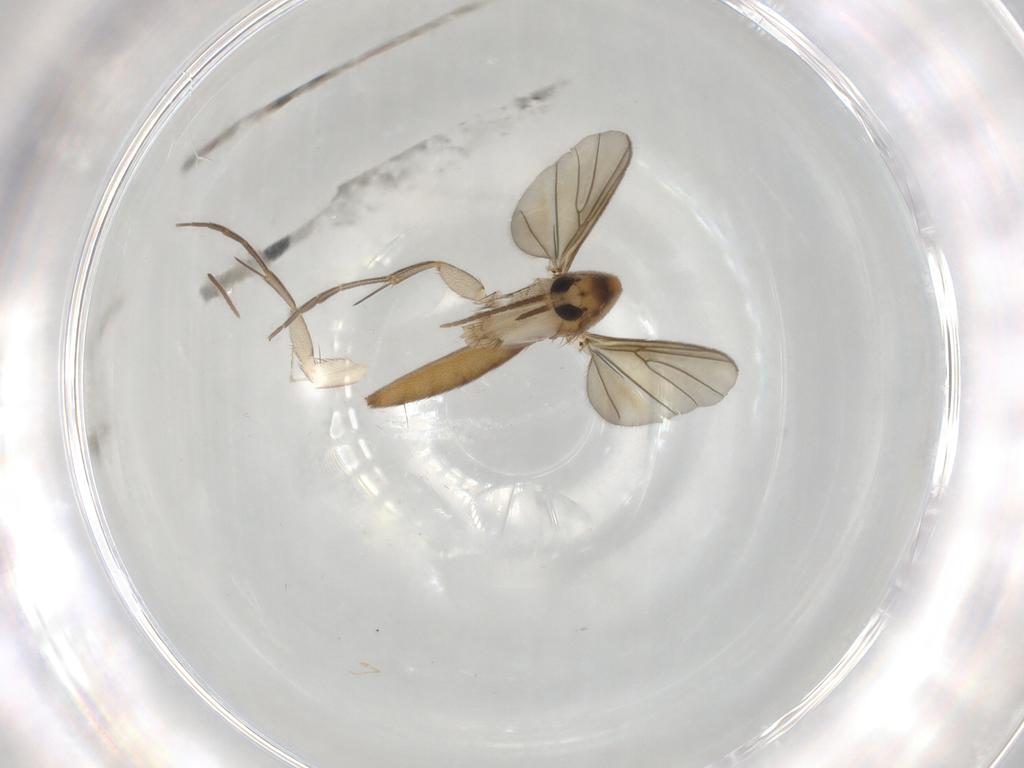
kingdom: Animalia
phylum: Arthropoda
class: Insecta
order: Diptera
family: Mycetophilidae
